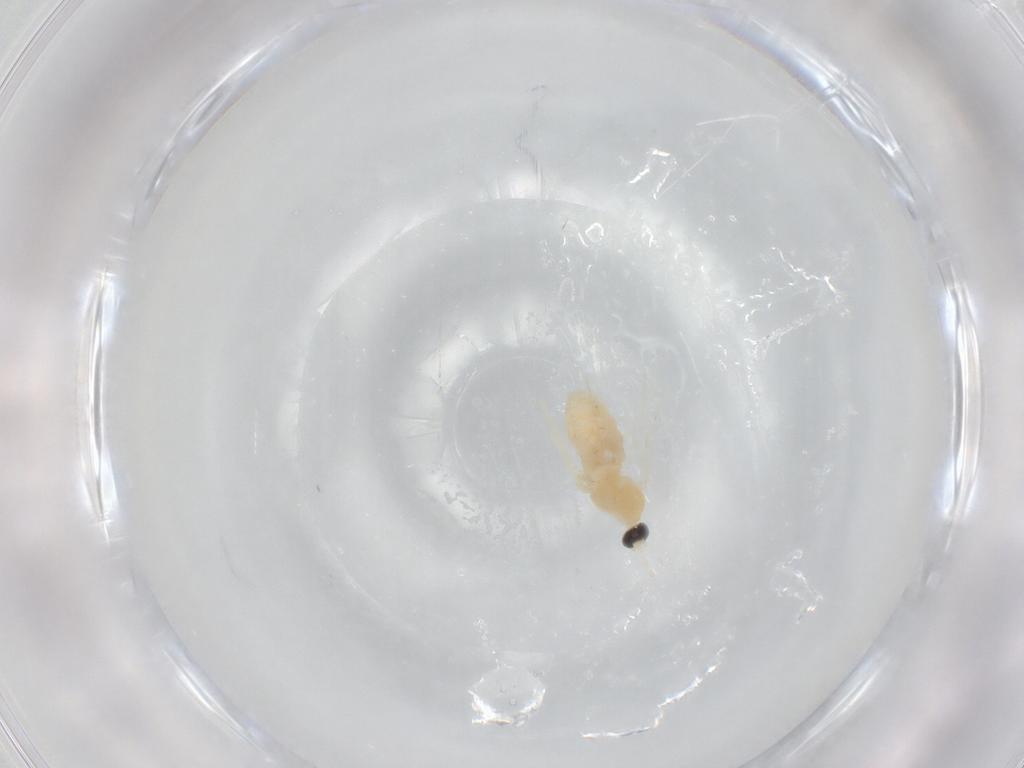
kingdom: Animalia
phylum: Arthropoda
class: Insecta
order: Diptera
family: Cecidomyiidae
